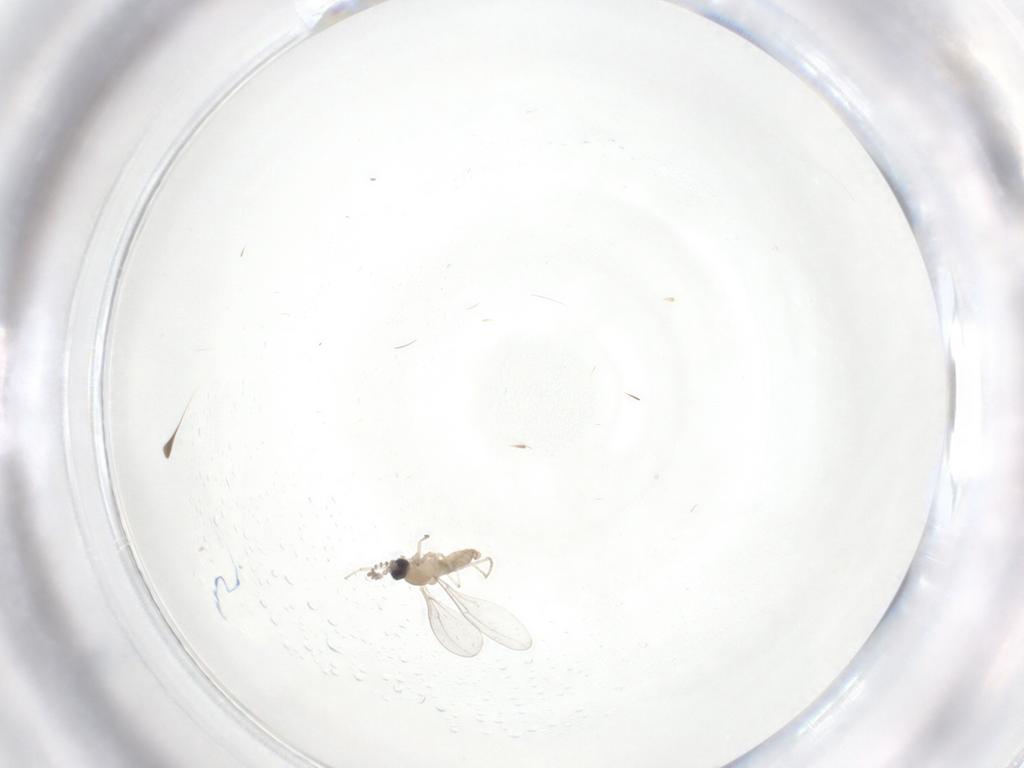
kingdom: Animalia
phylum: Arthropoda
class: Insecta
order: Diptera
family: Cecidomyiidae
